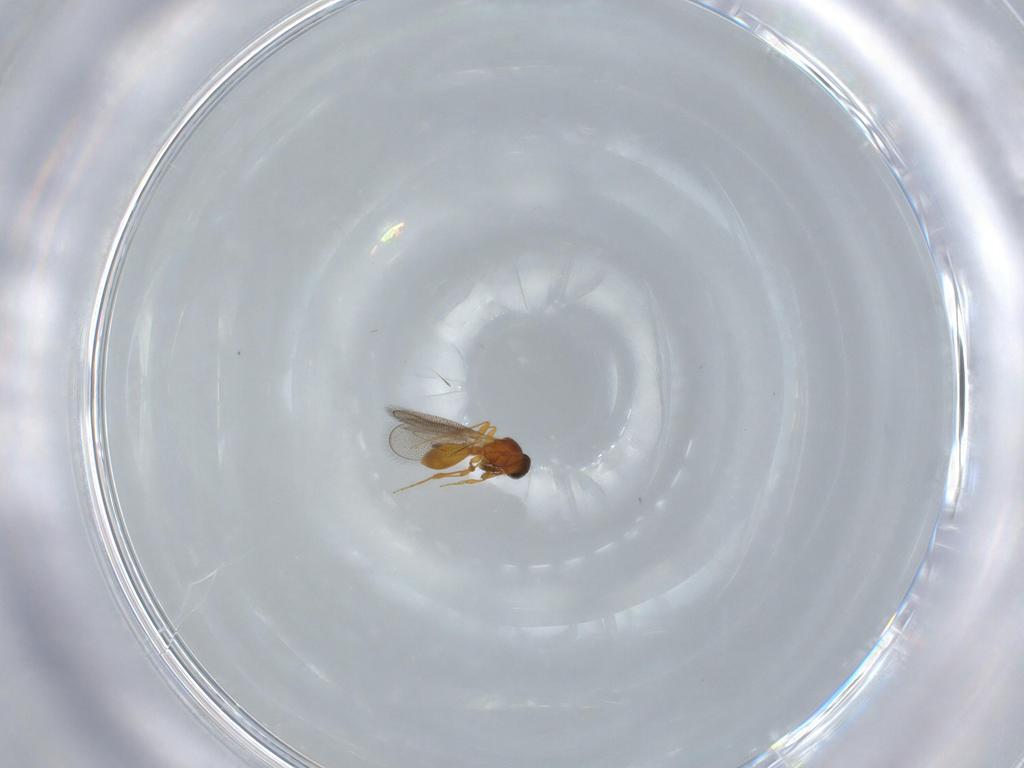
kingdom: Animalia
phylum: Arthropoda
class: Insecta
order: Hymenoptera
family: Platygastridae
